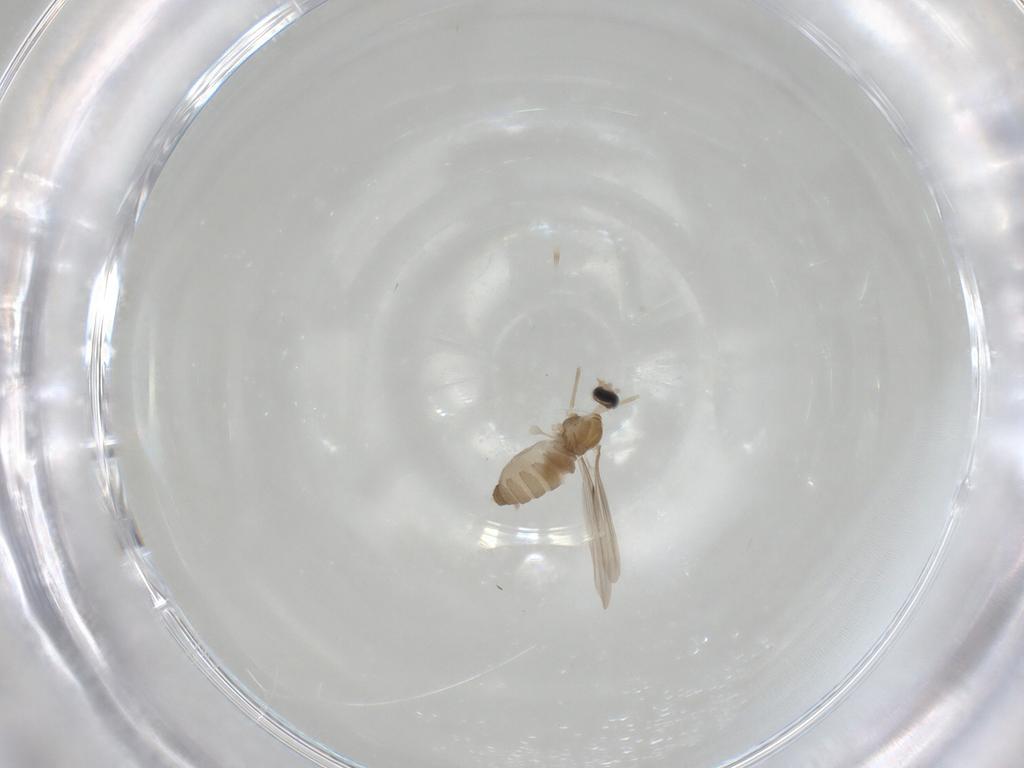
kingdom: Animalia
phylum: Arthropoda
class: Insecta
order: Diptera
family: Cecidomyiidae
